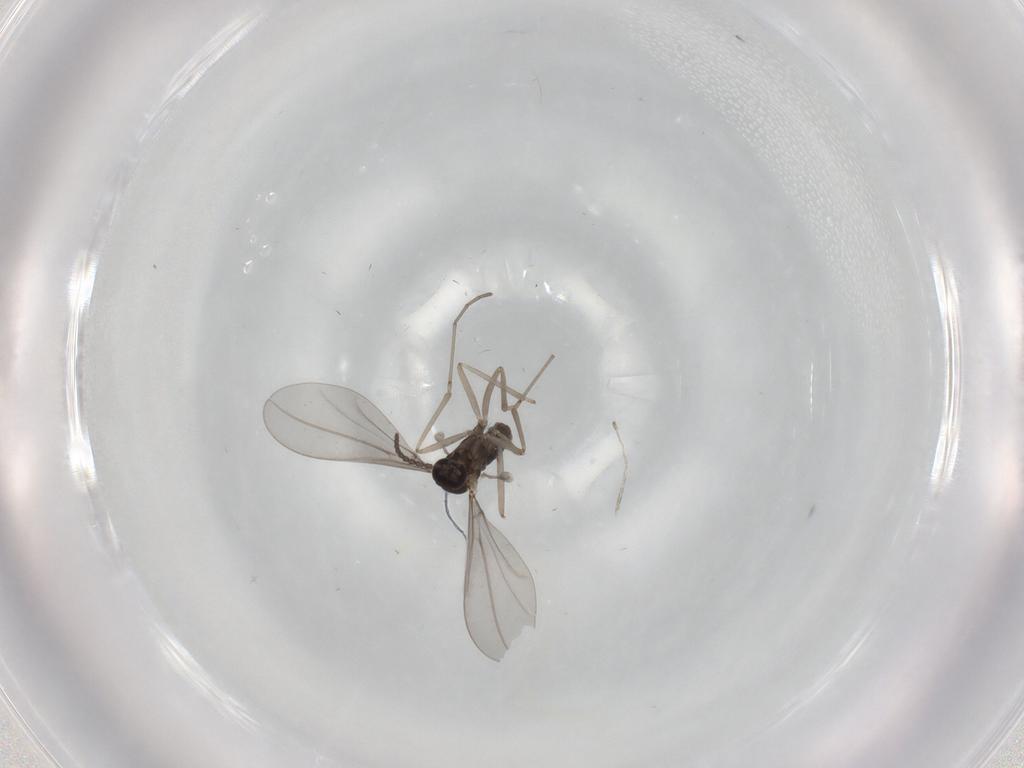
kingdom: Animalia
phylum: Arthropoda
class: Insecta
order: Diptera
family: Cecidomyiidae
